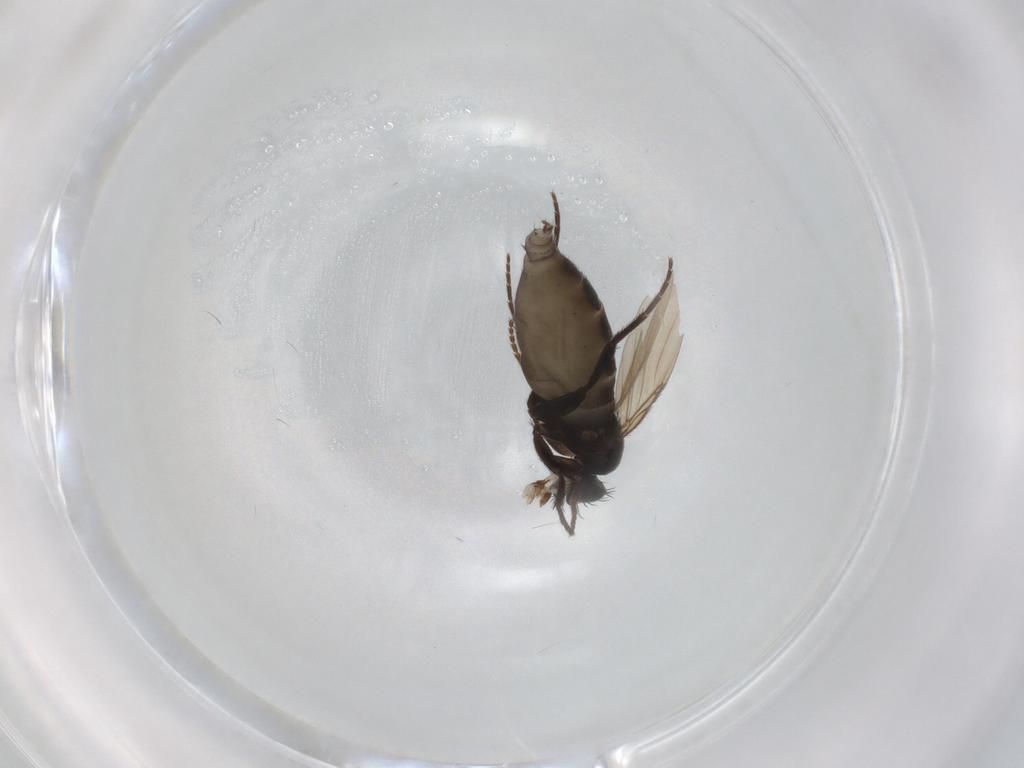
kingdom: Animalia
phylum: Arthropoda
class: Insecta
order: Diptera
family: Chironomidae
